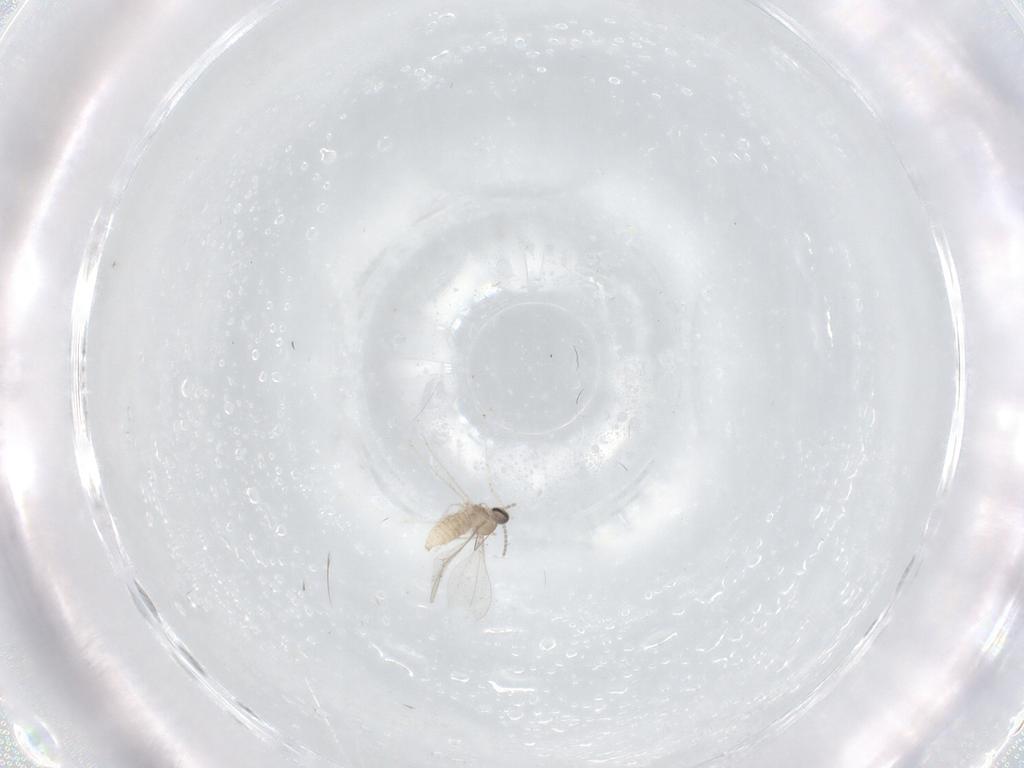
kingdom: Animalia
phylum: Arthropoda
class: Insecta
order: Diptera
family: Cecidomyiidae
